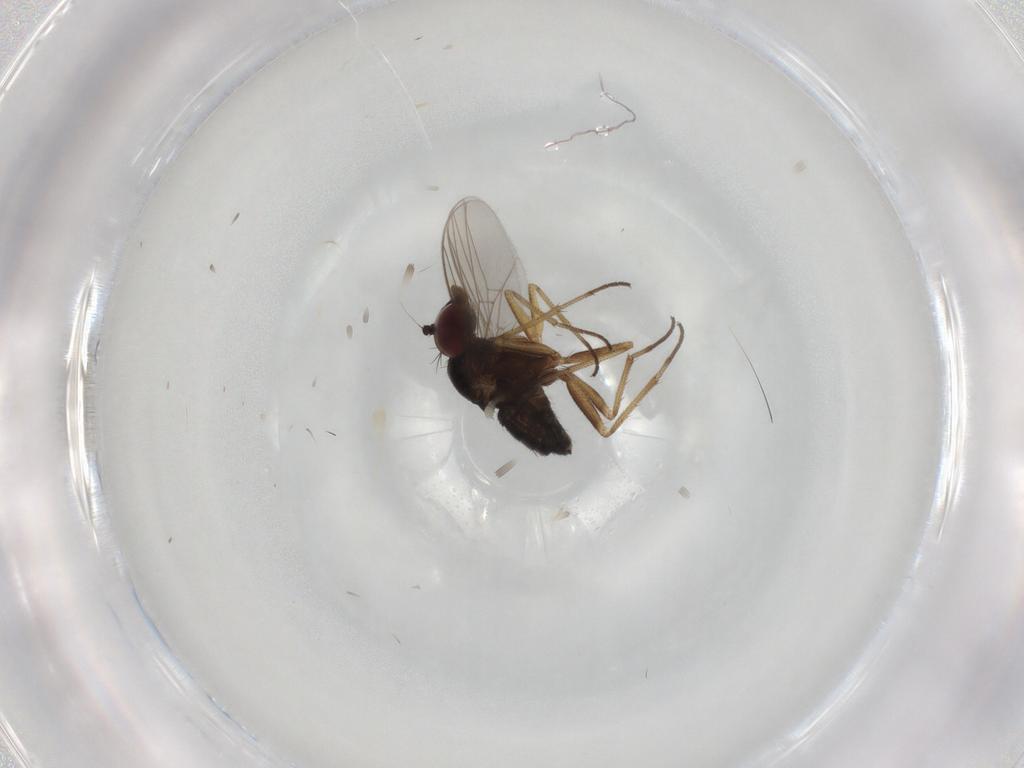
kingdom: Animalia
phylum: Arthropoda
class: Insecta
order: Diptera
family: Dolichopodidae
